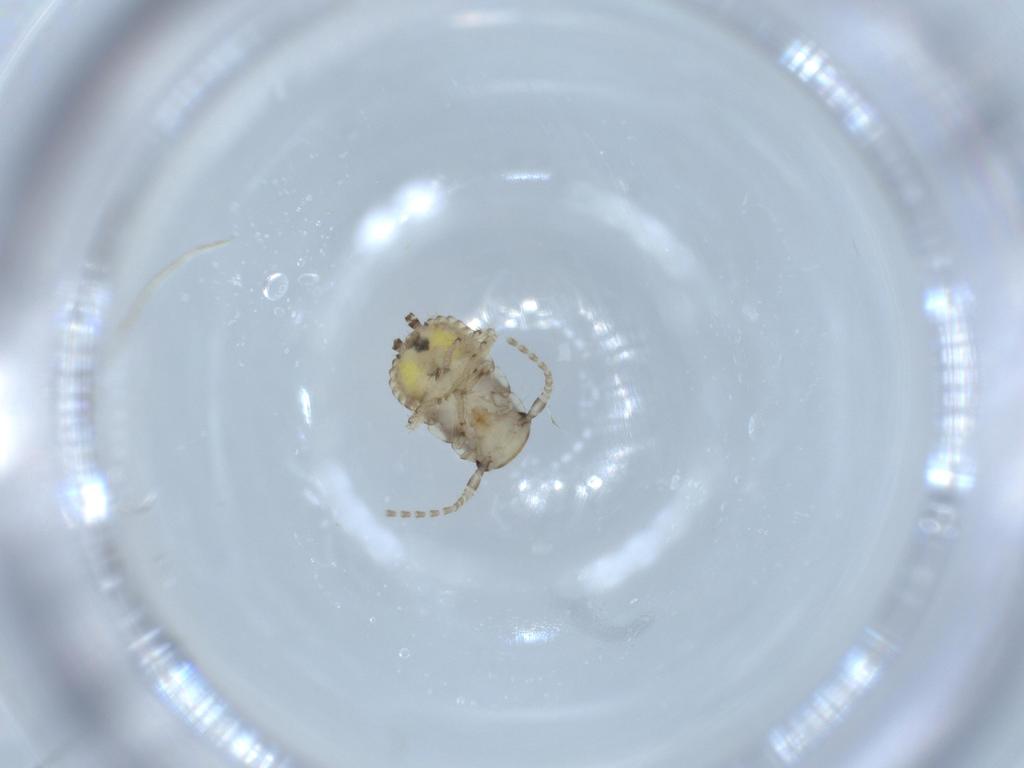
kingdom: Animalia
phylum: Arthropoda
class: Insecta
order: Blattodea
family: Ectobiidae
